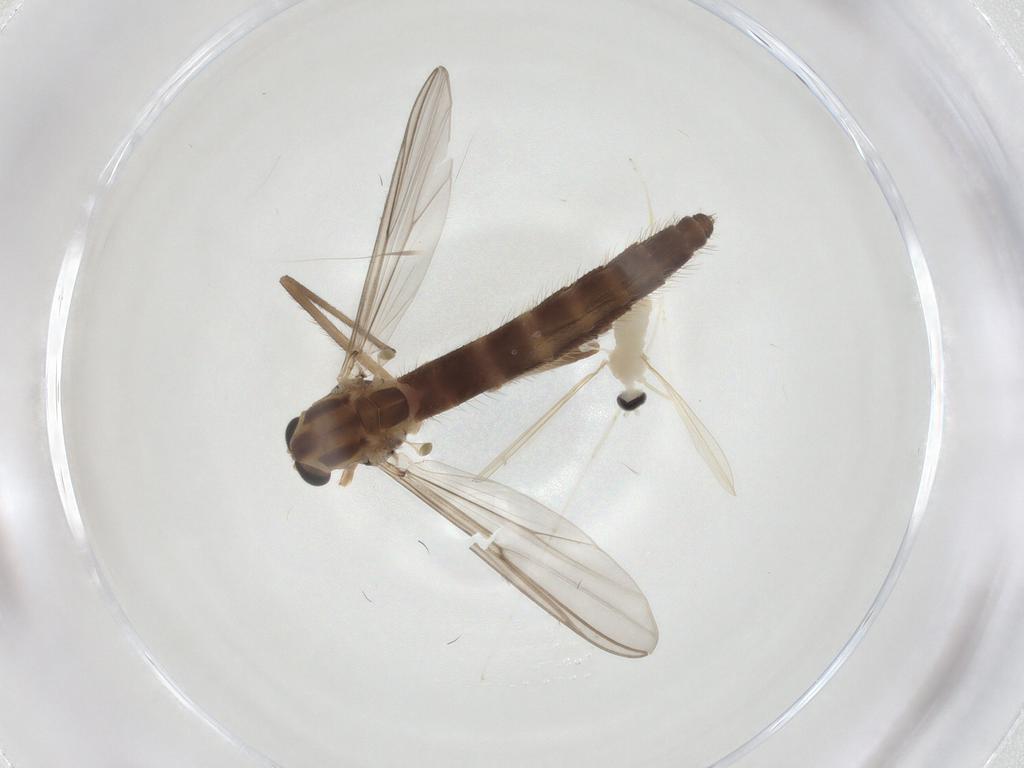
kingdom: Animalia
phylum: Arthropoda
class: Insecta
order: Diptera
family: Chironomidae
